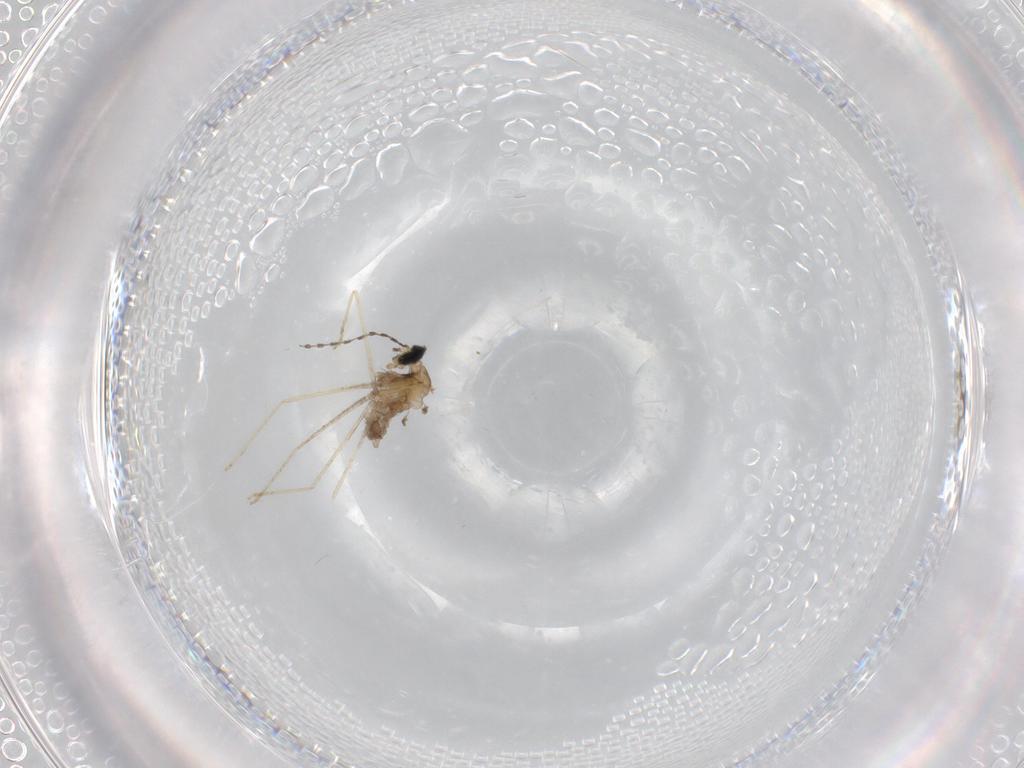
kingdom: Animalia
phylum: Arthropoda
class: Insecta
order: Diptera
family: Cecidomyiidae
